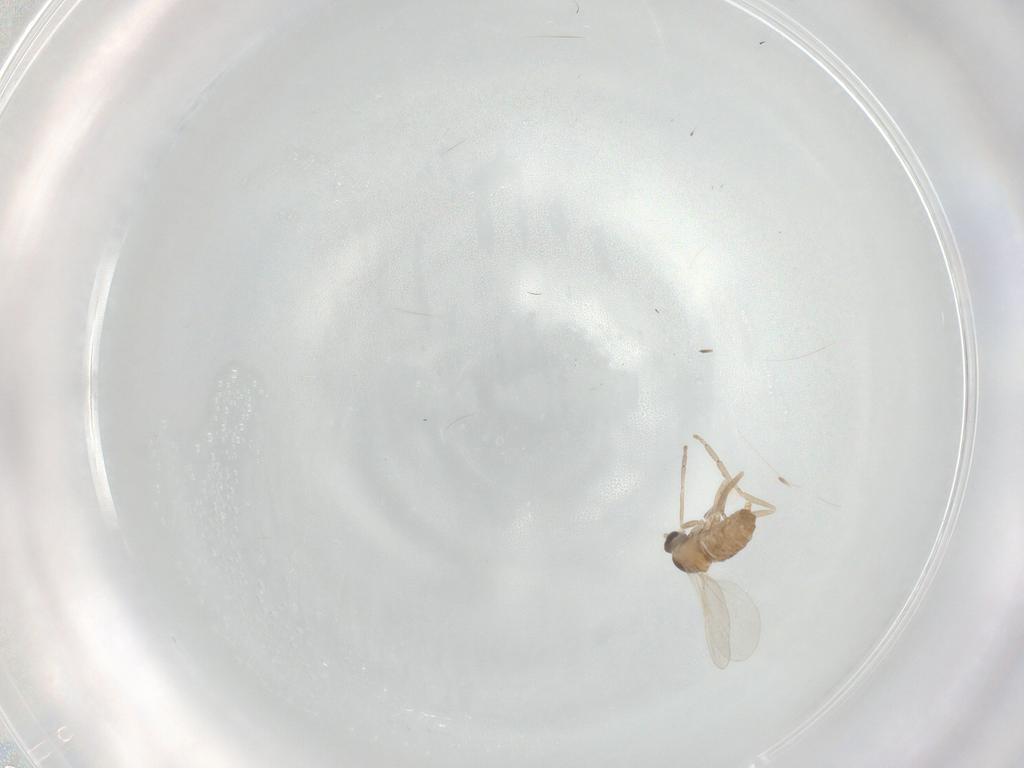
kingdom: Animalia
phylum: Arthropoda
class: Insecta
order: Diptera
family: Cecidomyiidae
